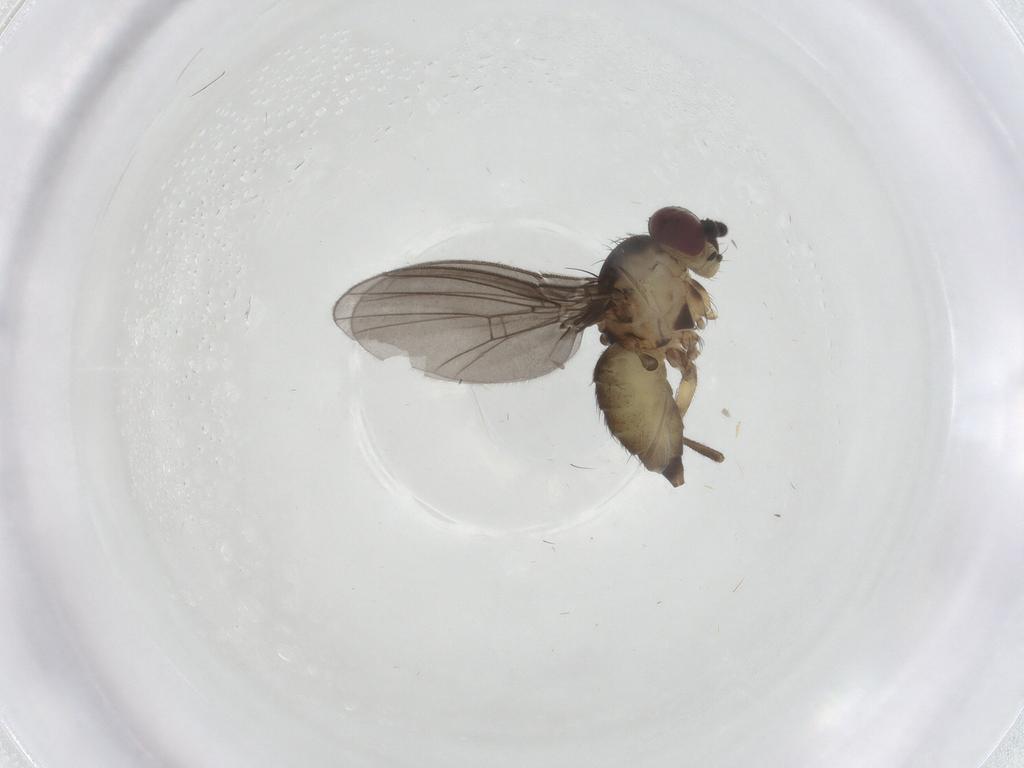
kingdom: Animalia
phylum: Arthropoda
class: Insecta
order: Diptera
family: Agromyzidae
